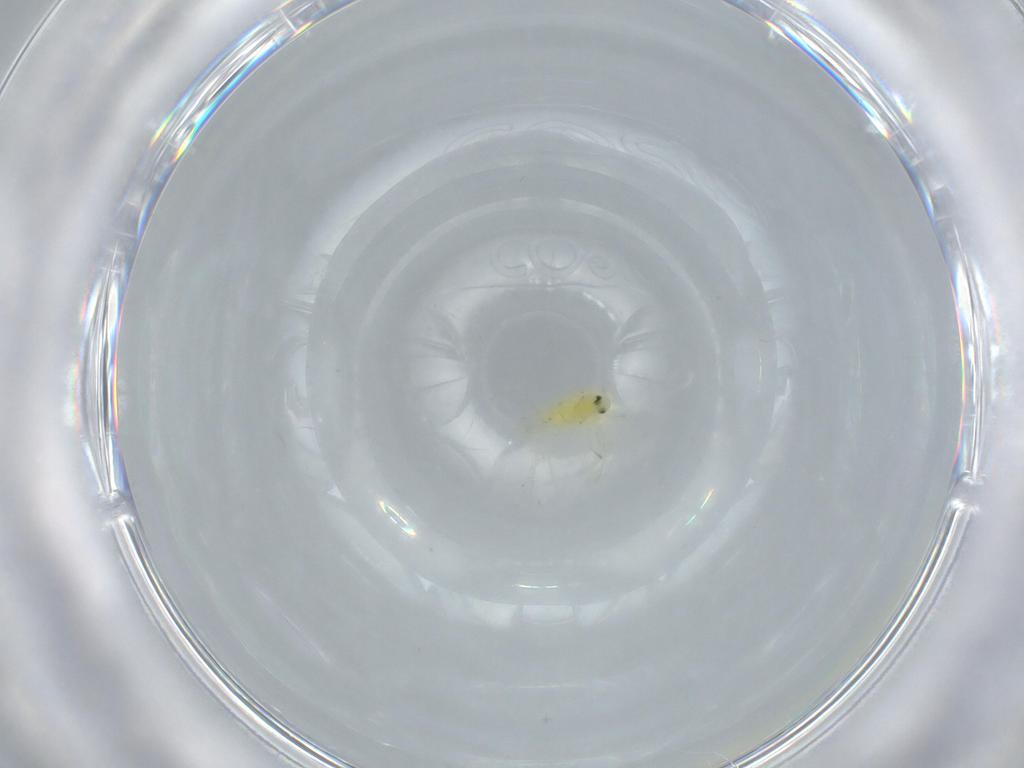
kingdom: Animalia
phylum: Arthropoda
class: Insecta
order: Hemiptera
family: Aleyrodidae
